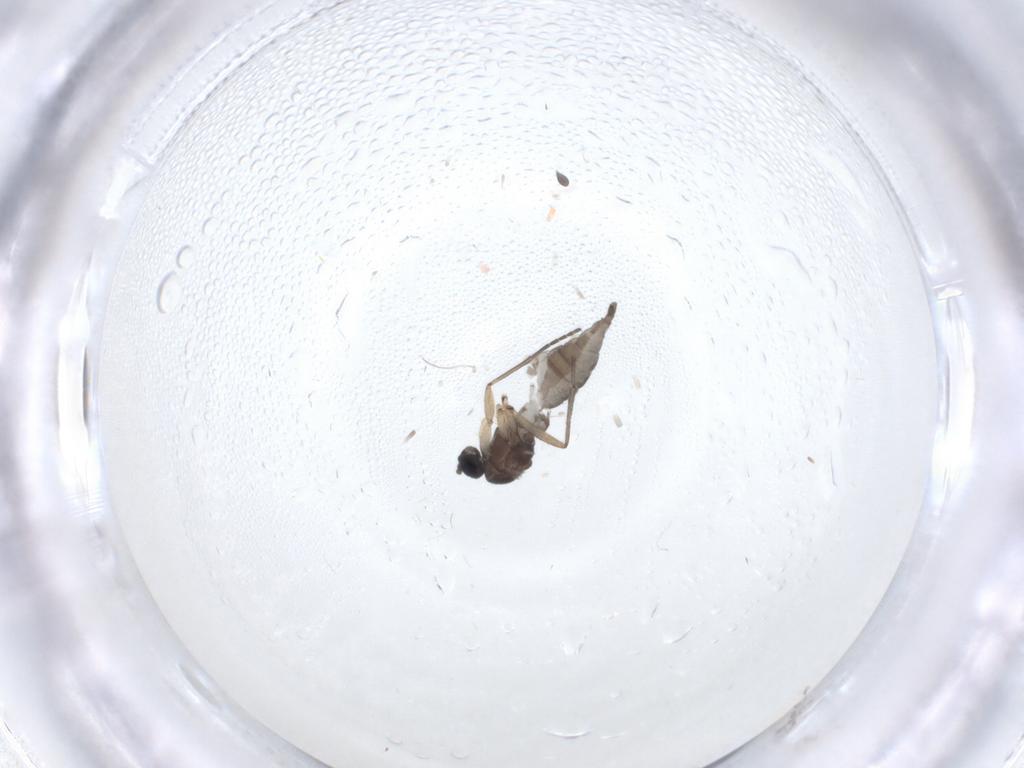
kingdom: Animalia
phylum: Arthropoda
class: Insecta
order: Diptera
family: Sciaridae
